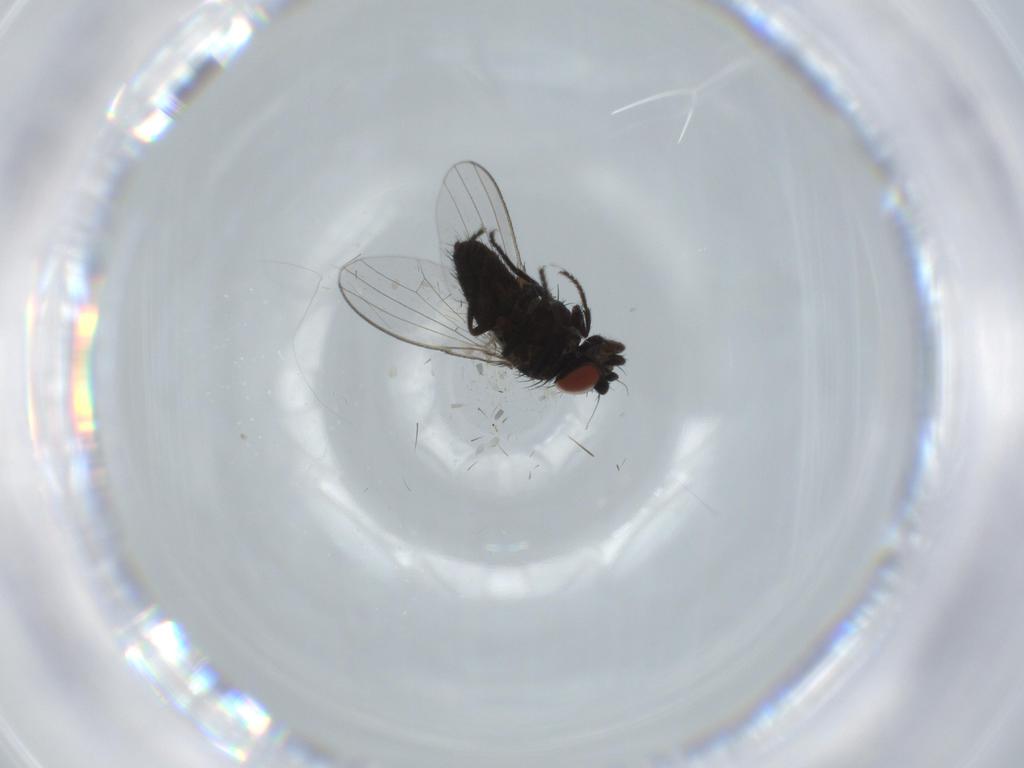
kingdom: Animalia
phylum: Arthropoda
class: Insecta
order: Diptera
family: Milichiidae
